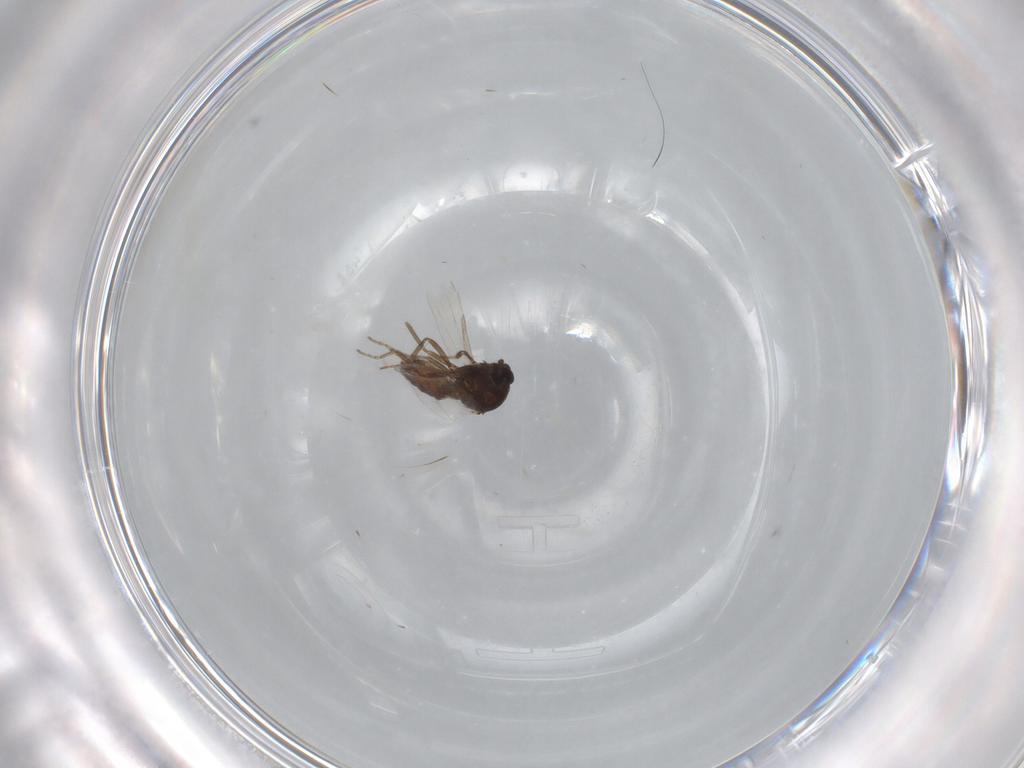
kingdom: Animalia
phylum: Arthropoda
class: Insecta
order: Diptera
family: Ceratopogonidae
